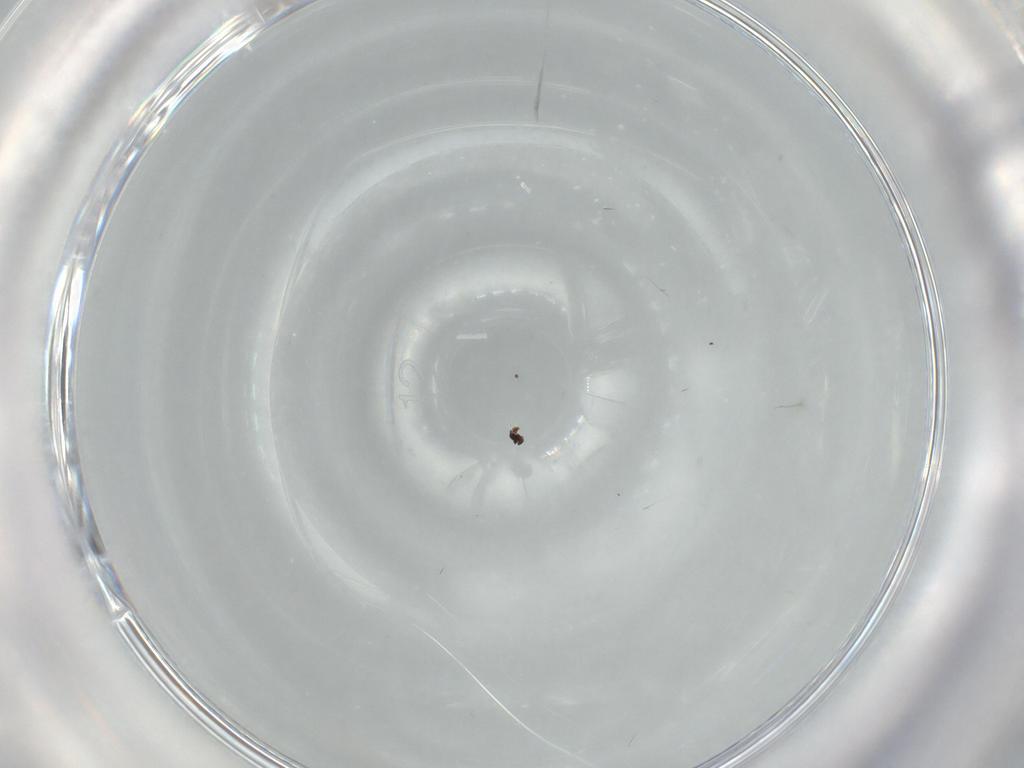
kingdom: Animalia
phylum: Arthropoda
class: Insecta
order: Hymenoptera
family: Scelionidae
